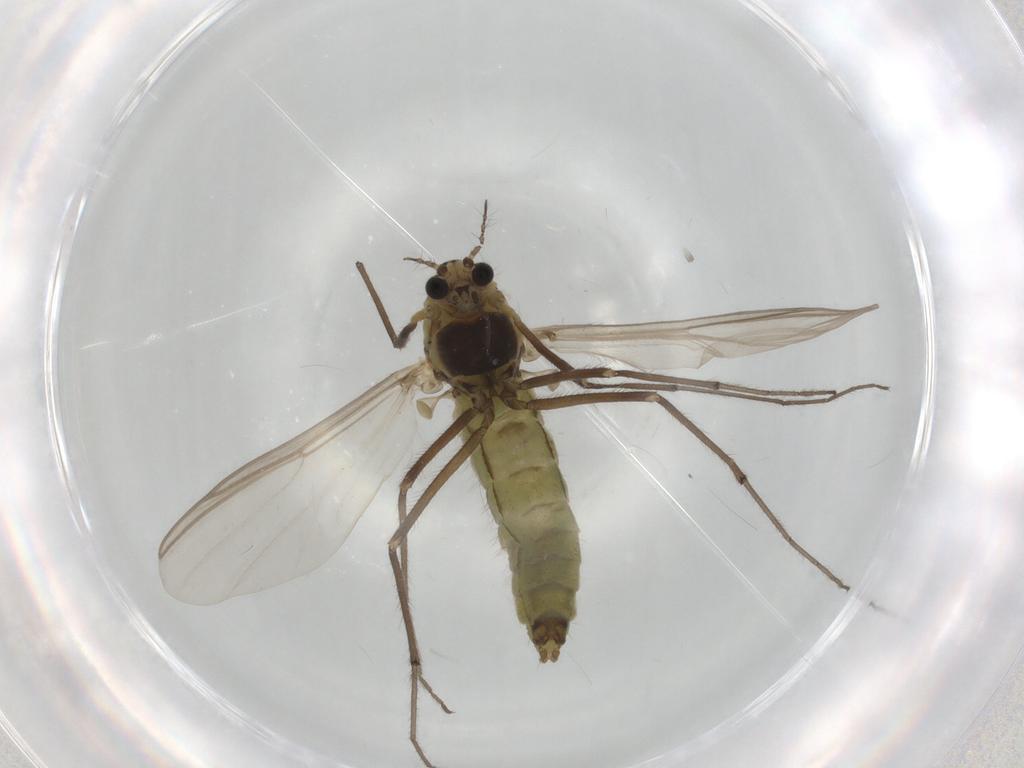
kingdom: Animalia
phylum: Arthropoda
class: Insecta
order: Diptera
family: Chironomidae
